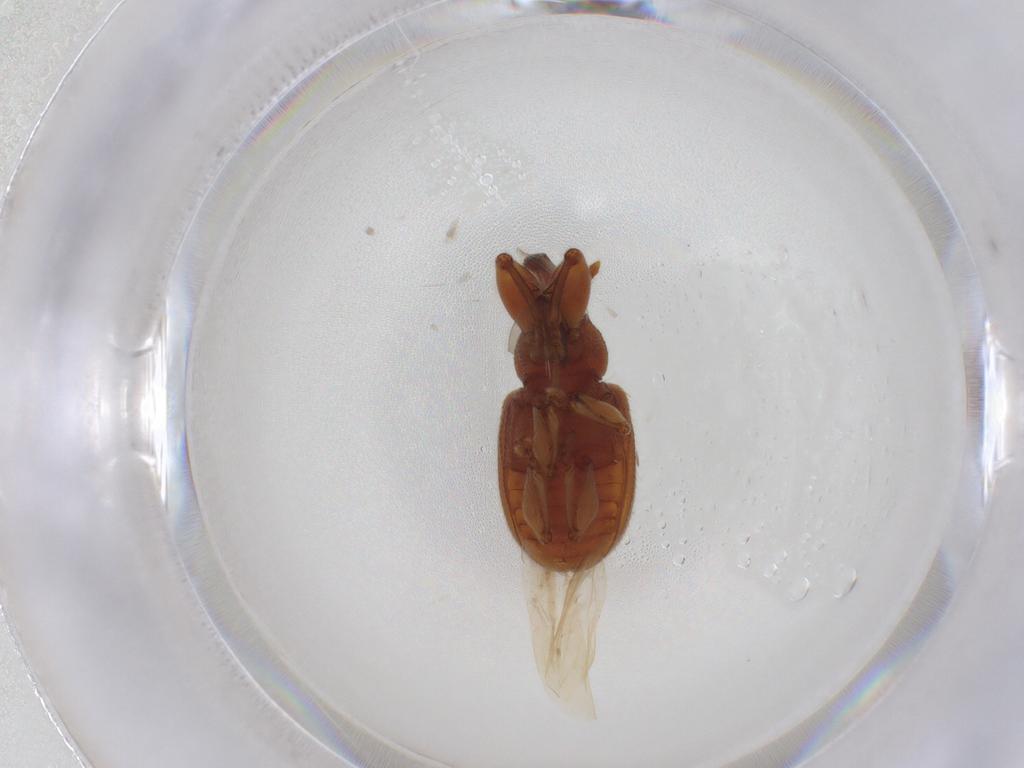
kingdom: Animalia
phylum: Arthropoda
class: Insecta
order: Coleoptera
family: Curculionidae
